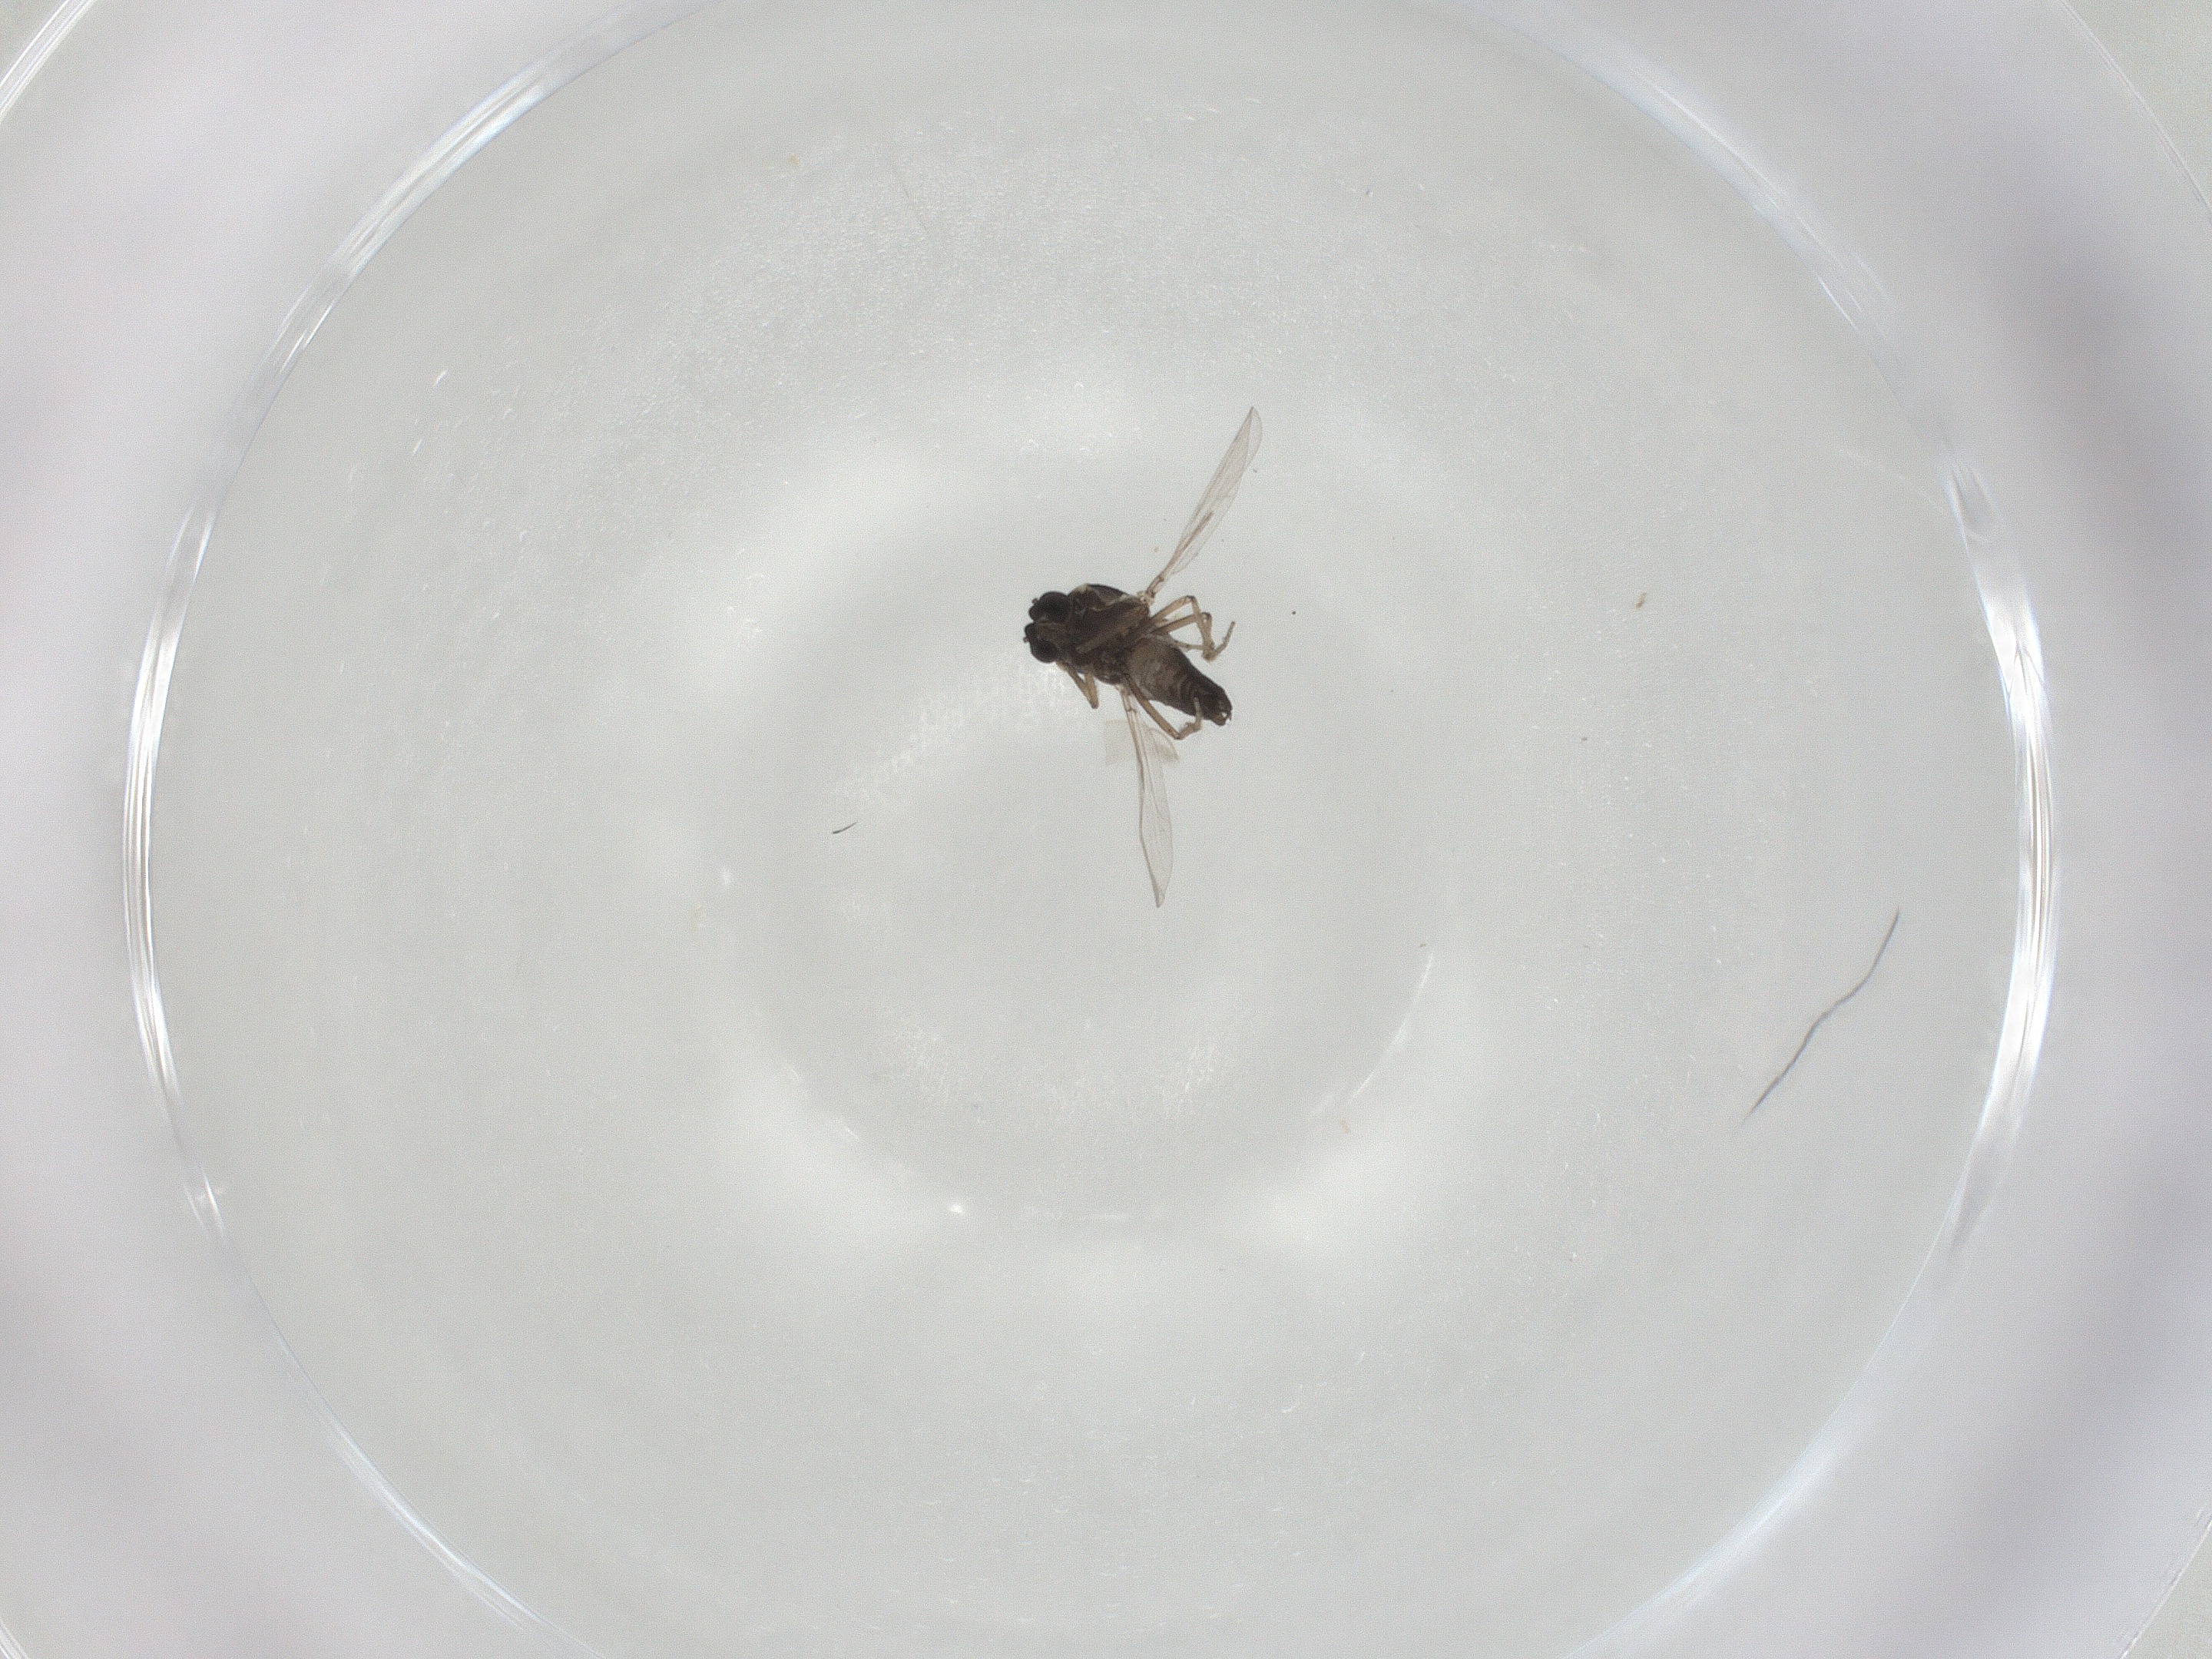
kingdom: Animalia
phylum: Arthropoda
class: Insecta
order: Diptera
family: Ceratopogonidae
